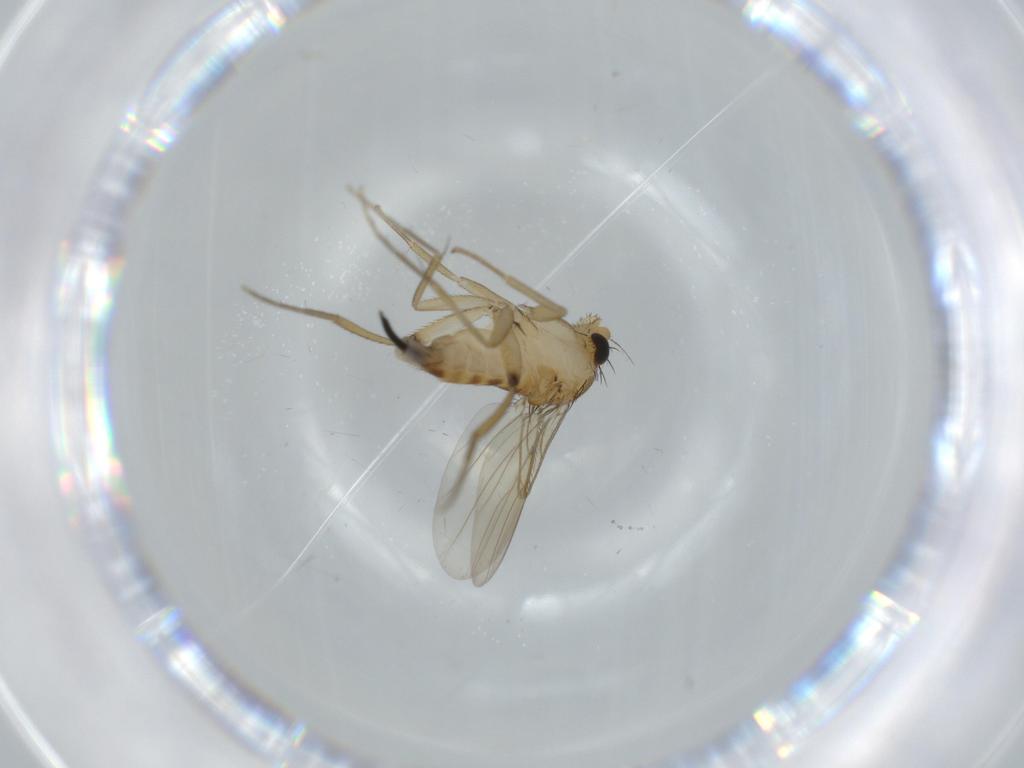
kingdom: Animalia
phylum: Arthropoda
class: Insecta
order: Diptera
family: Phoridae
